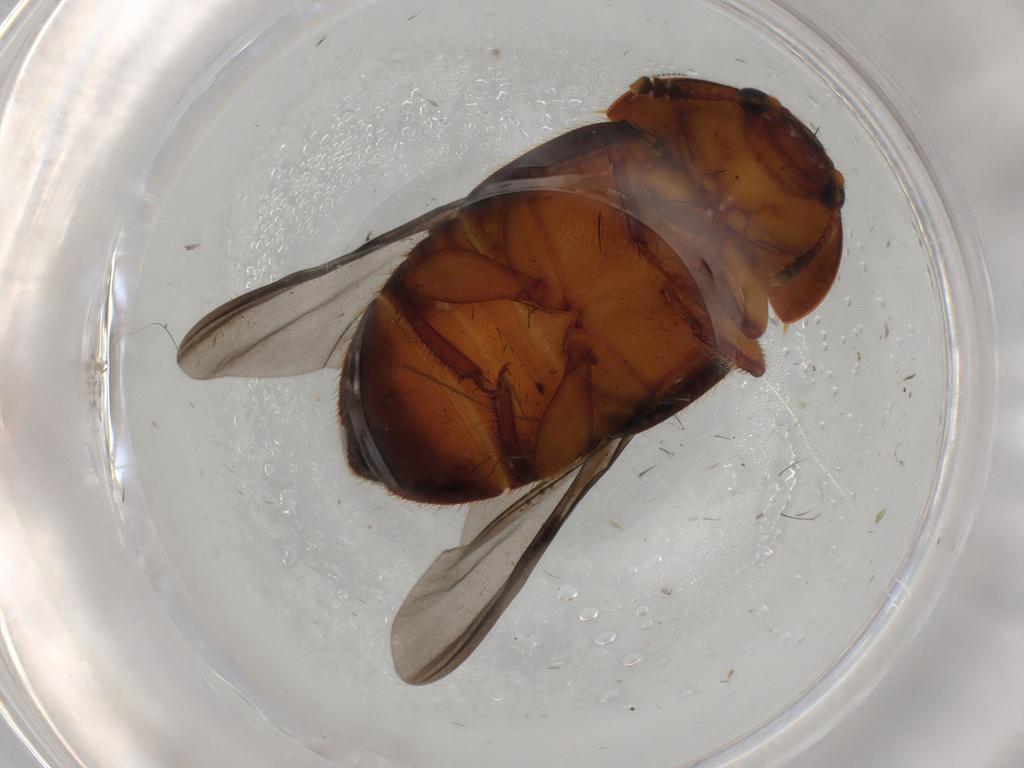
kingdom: Animalia
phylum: Arthropoda
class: Insecta
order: Coleoptera
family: Nitidulidae
